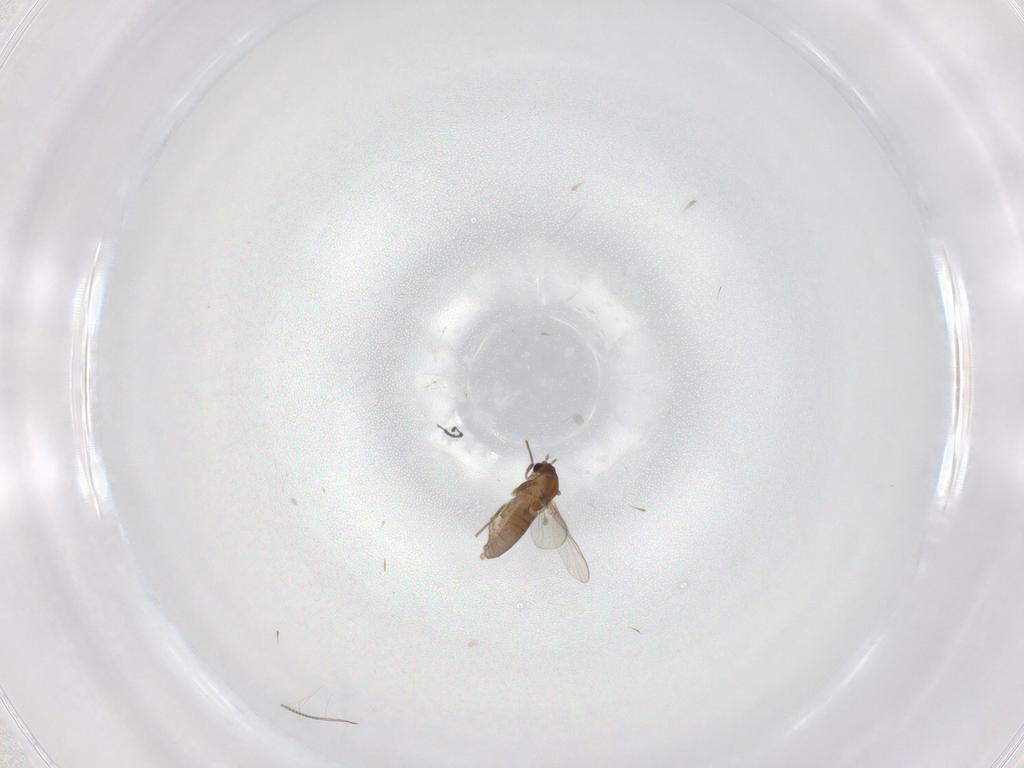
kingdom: Animalia
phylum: Arthropoda
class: Insecta
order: Diptera
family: Chironomidae
